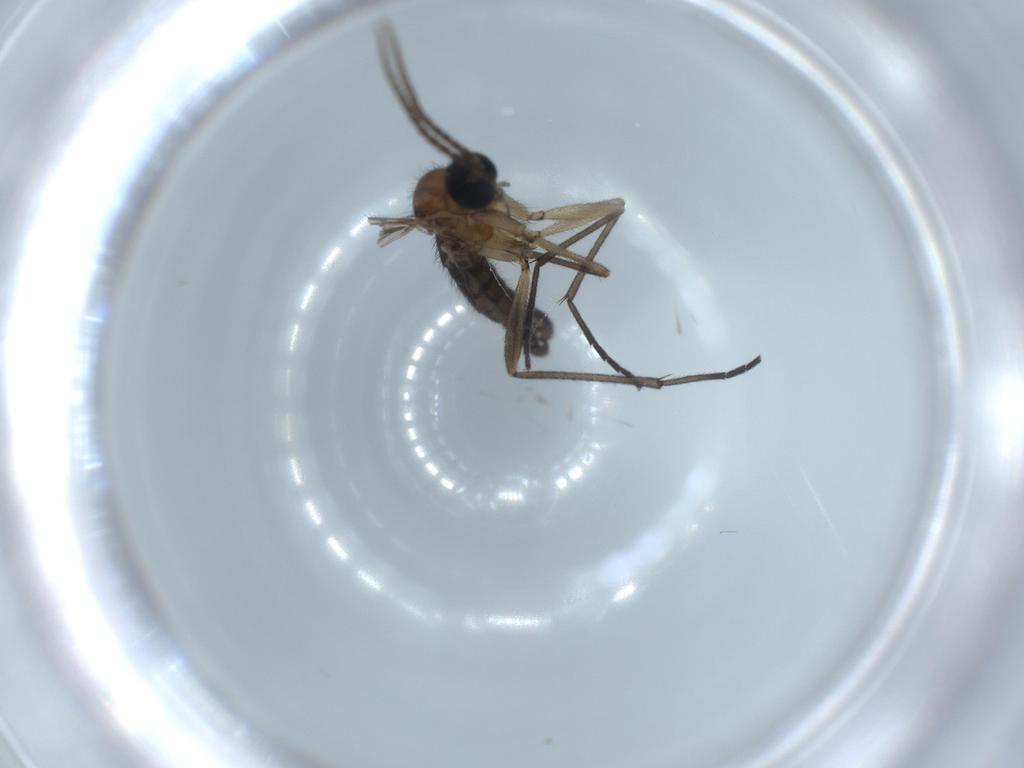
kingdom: Animalia
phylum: Arthropoda
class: Insecta
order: Diptera
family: Sciaridae
